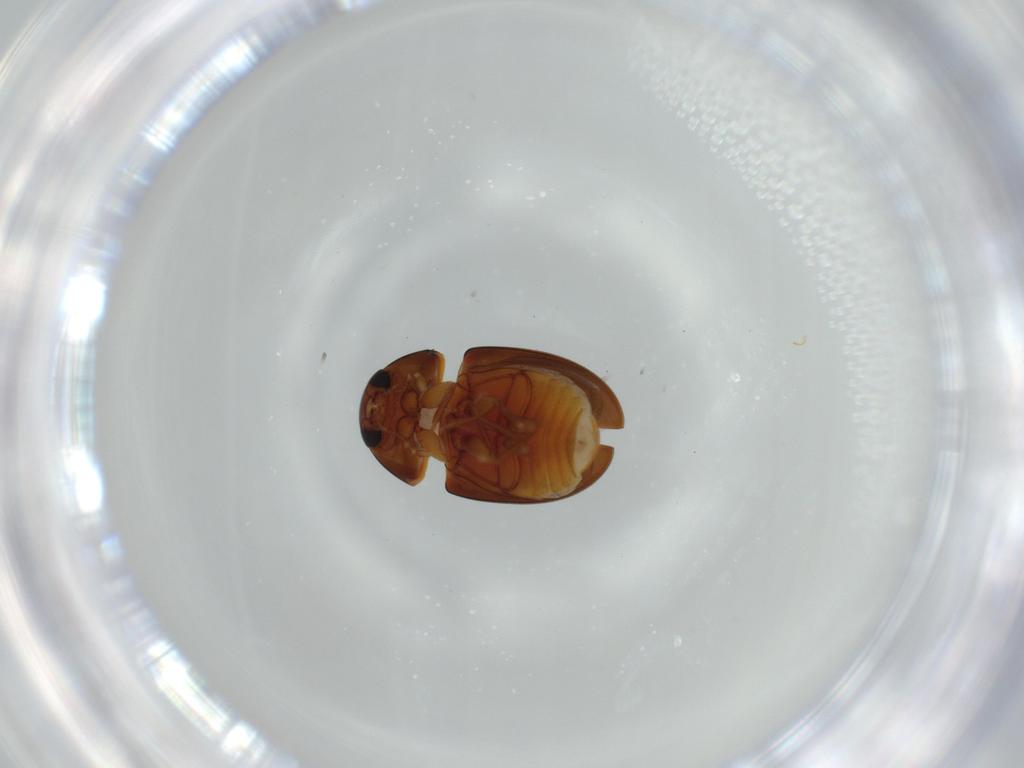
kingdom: Animalia
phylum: Arthropoda
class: Insecta
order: Coleoptera
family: Phalacridae
